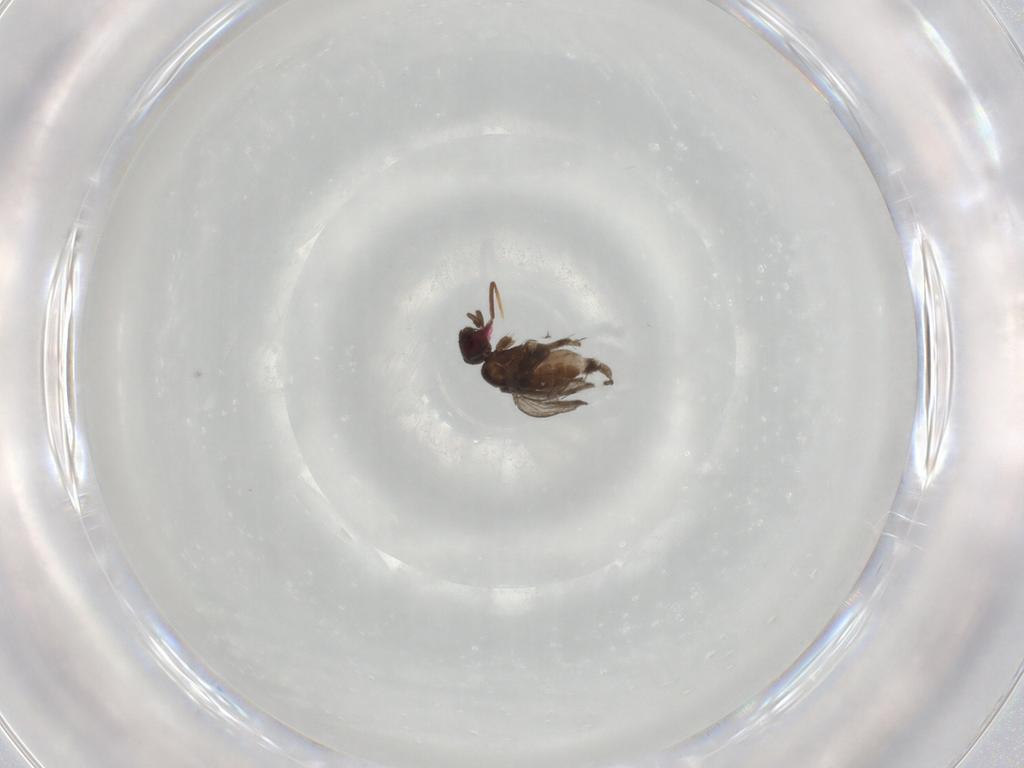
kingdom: Animalia
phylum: Arthropoda
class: Insecta
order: Diptera
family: Milichiidae
